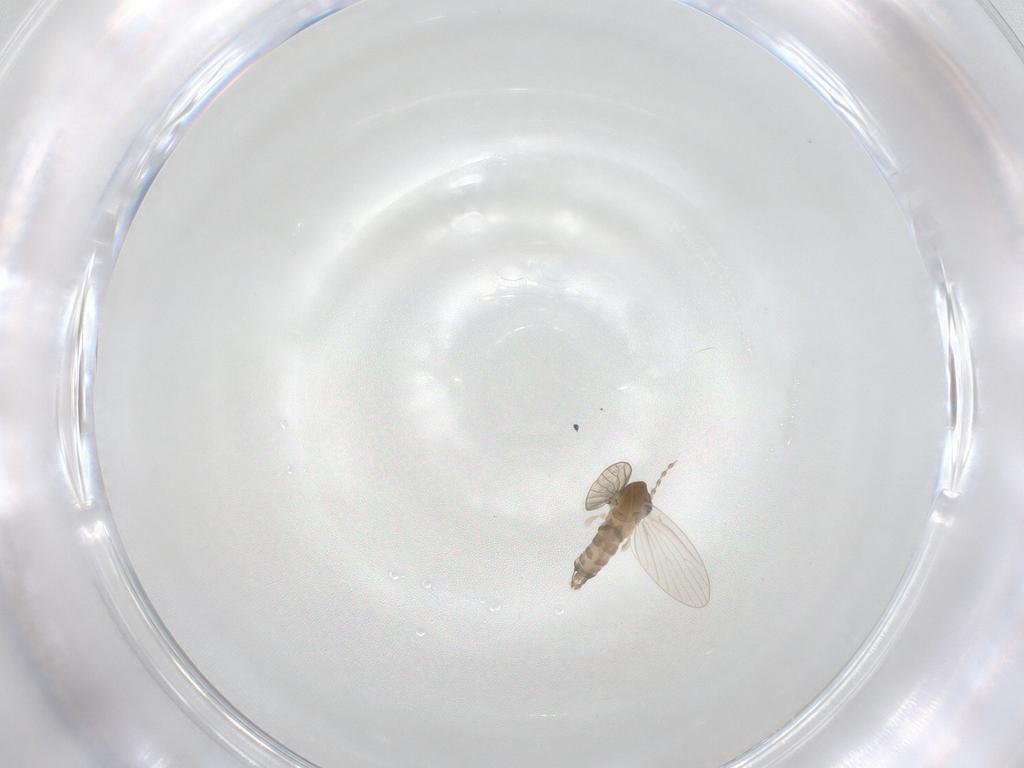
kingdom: Animalia
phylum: Arthropoda
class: Insecta
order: Diptera
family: Psychodidae
